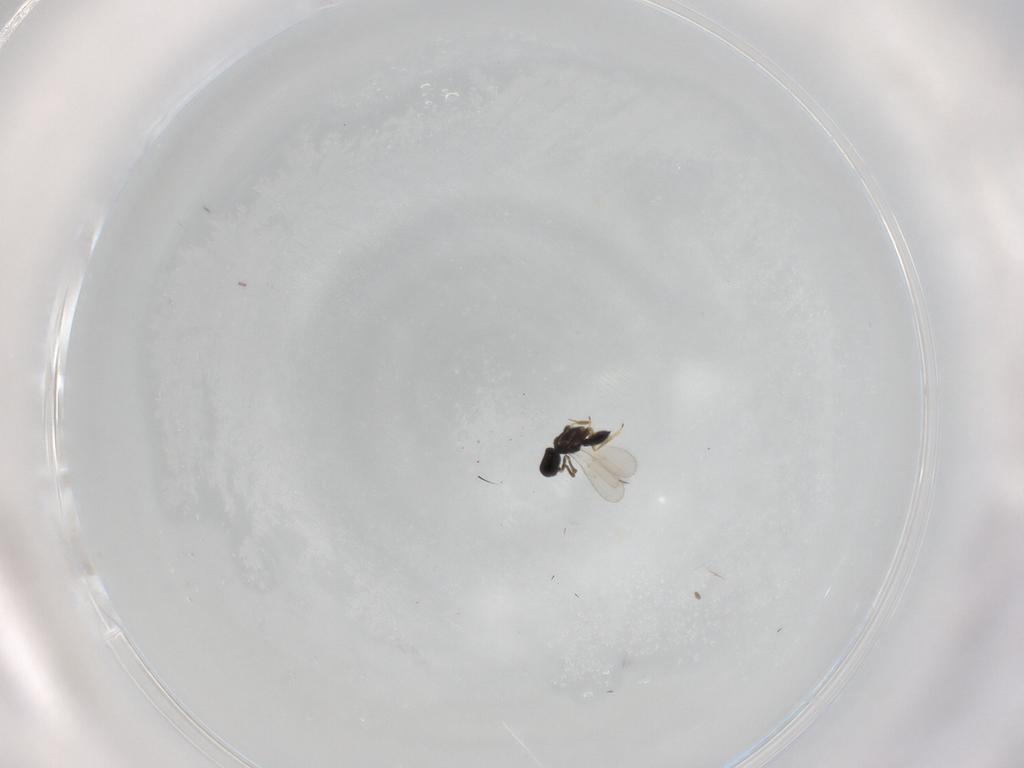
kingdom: Animalia
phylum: Arthropoda
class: Insecta
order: Hymenoptera
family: Scelionidae
